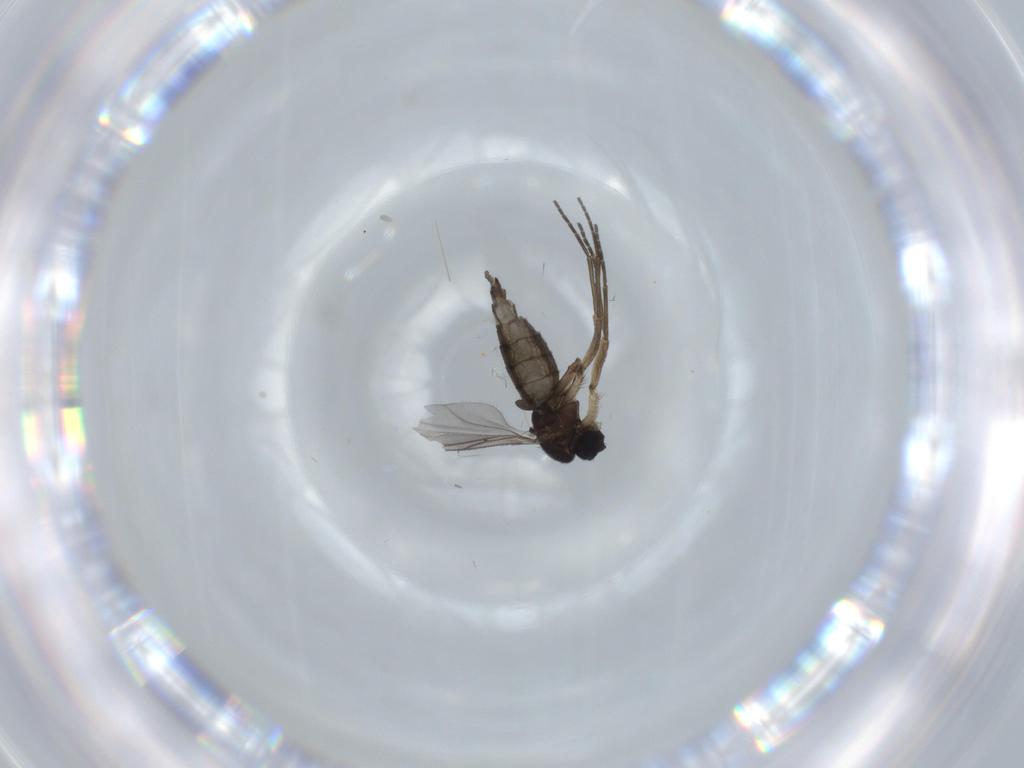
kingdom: Animalia
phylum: Arthropoda
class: Insecta
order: Diptera
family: Sciaridae
